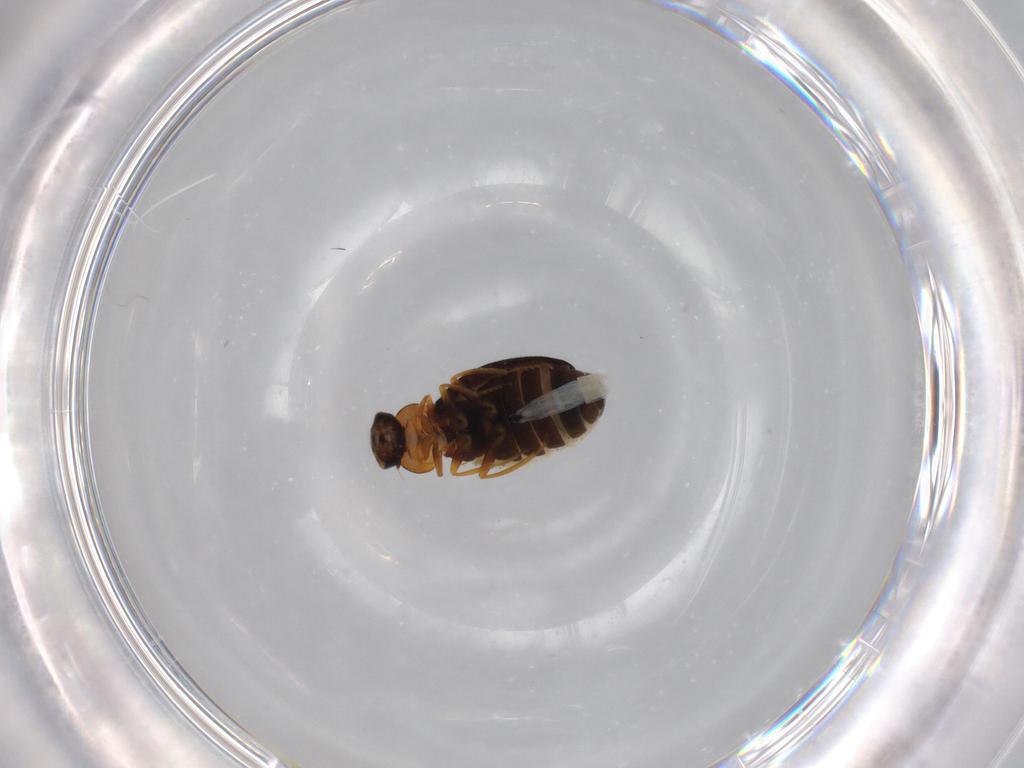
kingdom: Animalia
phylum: Arthropoda
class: Insecta
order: Coleoptera
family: Melyridae
